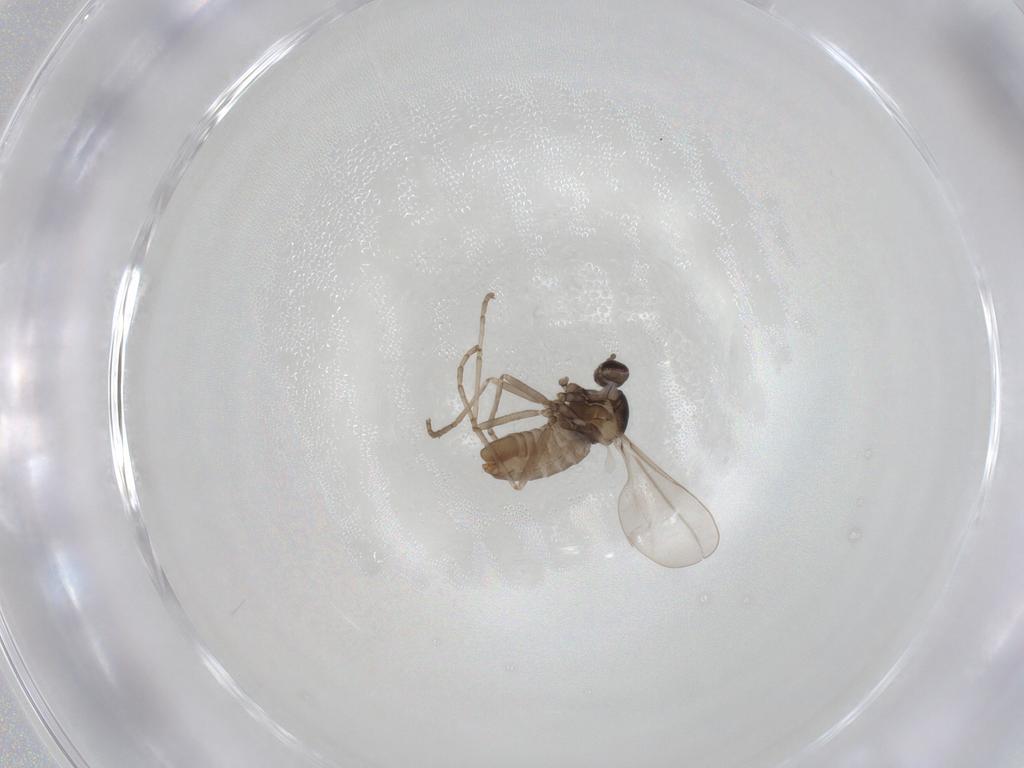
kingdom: Animalia
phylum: Arthropoda
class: Insecta
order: Diptera
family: Cecidomyiidae
